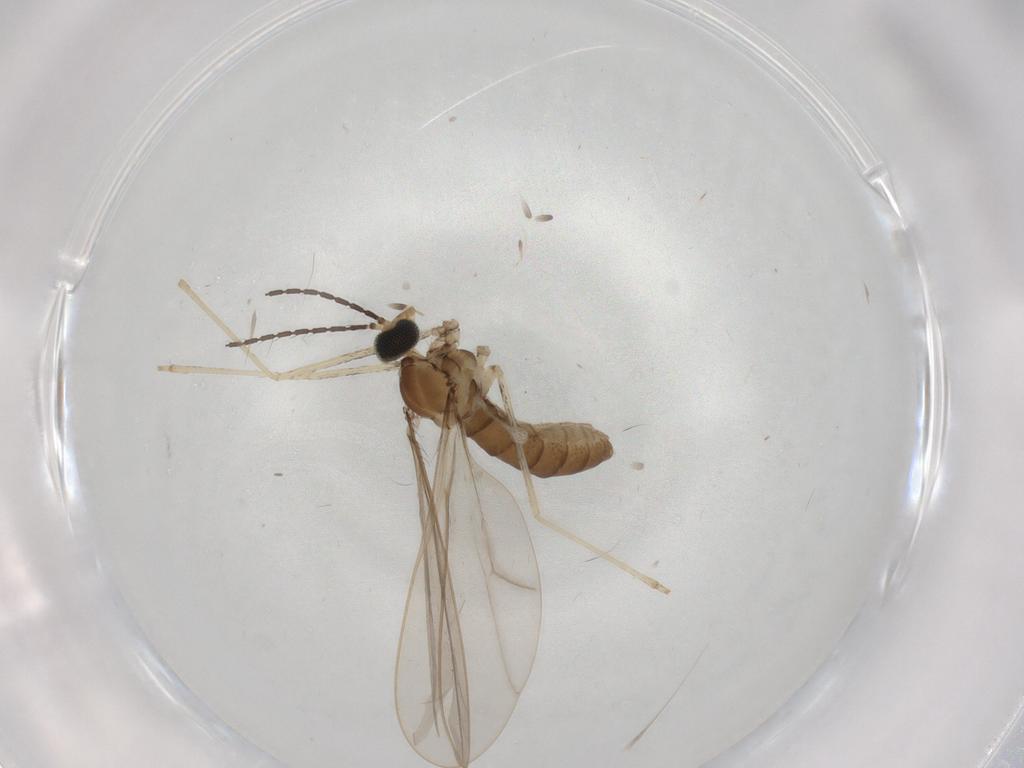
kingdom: Animalia
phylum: Arthropoda
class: Insecta
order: Diptera
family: Cecidomyiidae
